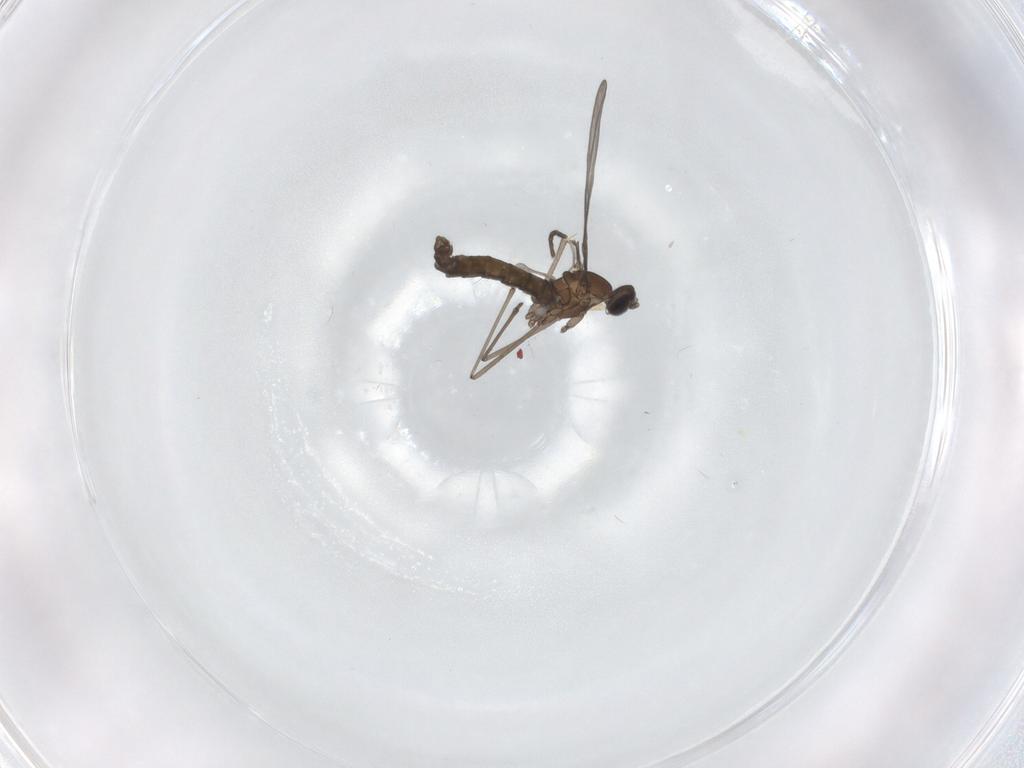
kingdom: Animalia
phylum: Arthropoda
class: Insecta
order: Diptera
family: Cecidomyiidae
